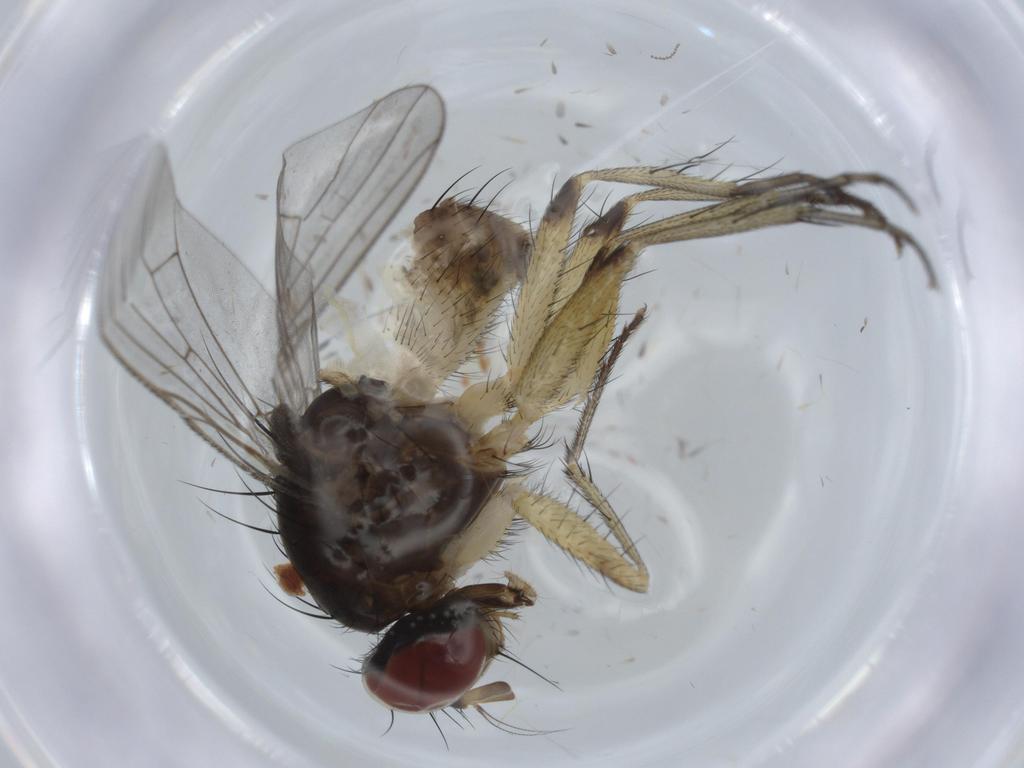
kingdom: Animalia
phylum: Arthropoda
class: Insecta
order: Diptera
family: Muscidae
